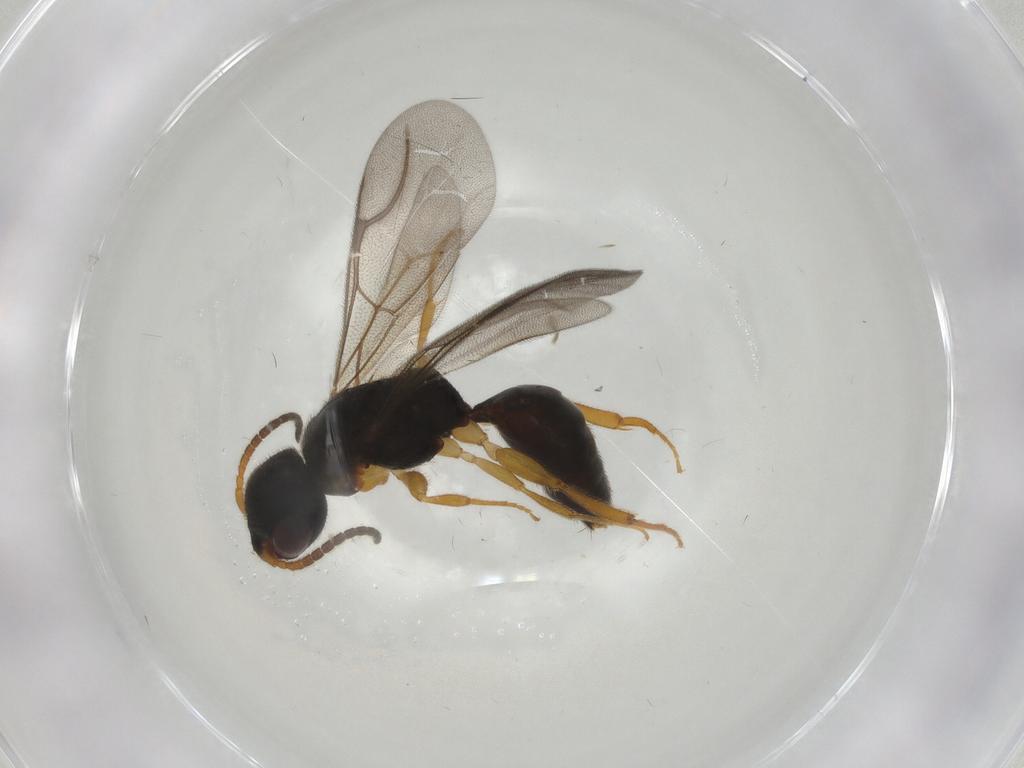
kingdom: Animalia
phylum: Arthropoda
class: Insecta
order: Hymenoptera
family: Bethylidae
